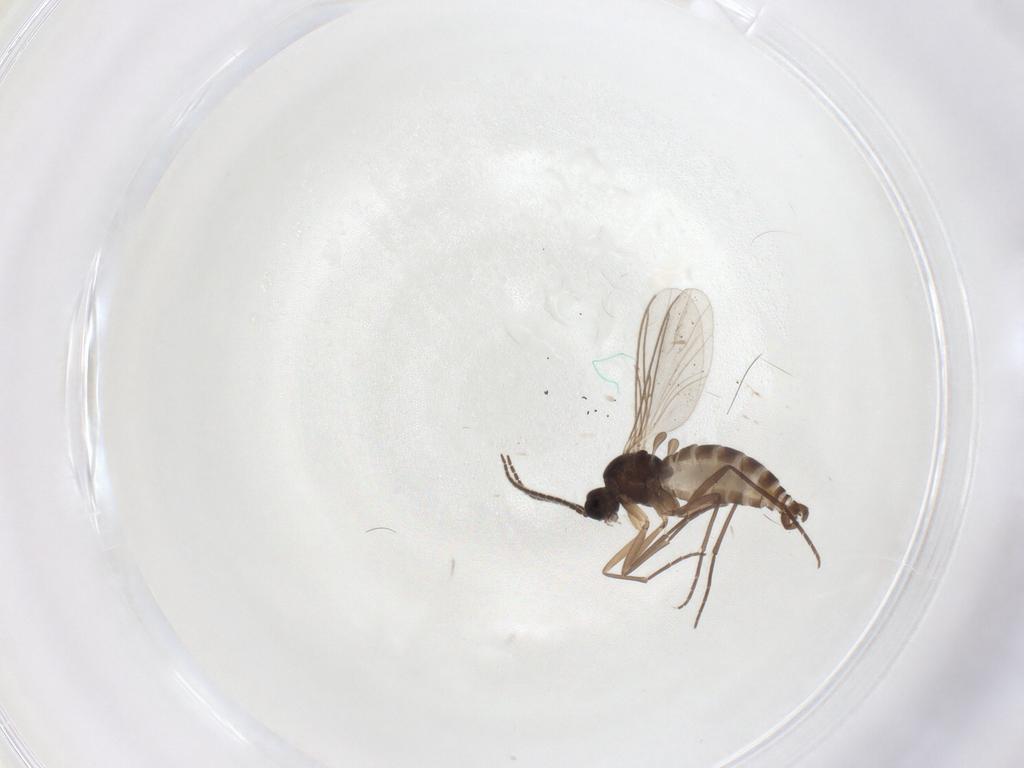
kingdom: Animalia
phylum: Arthropoda
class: Insecta
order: Diptera
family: Sciaridae
